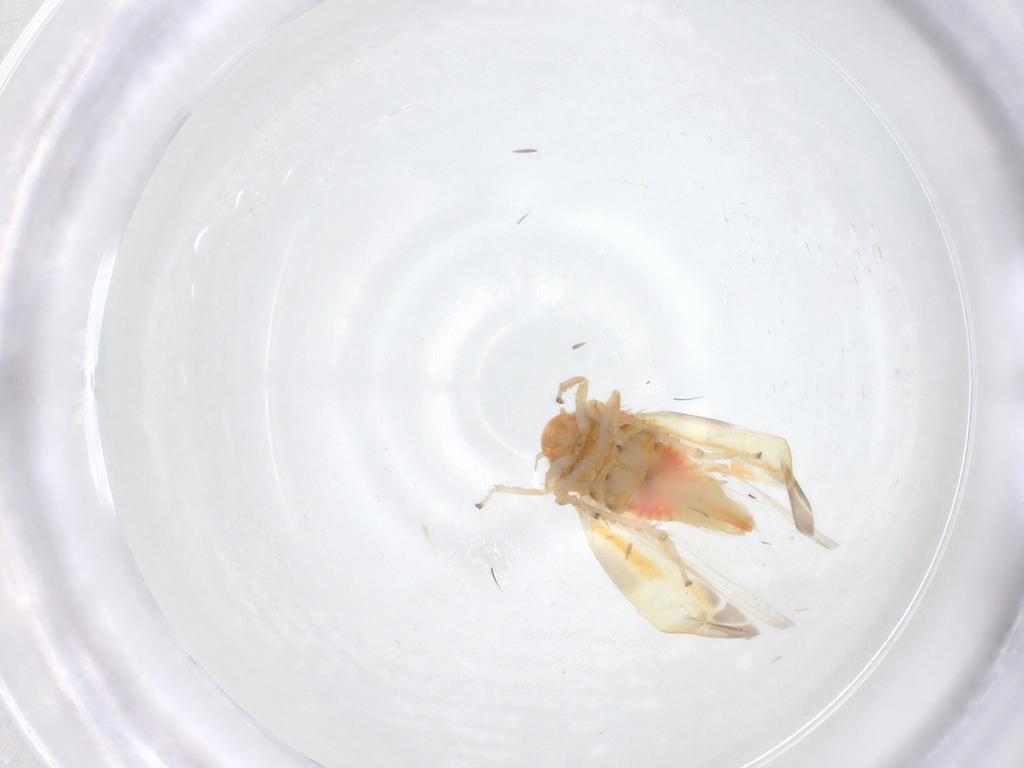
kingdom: Animalia
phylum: Arthropoda
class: Insecta
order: Hemiptera
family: Cicadellidae
